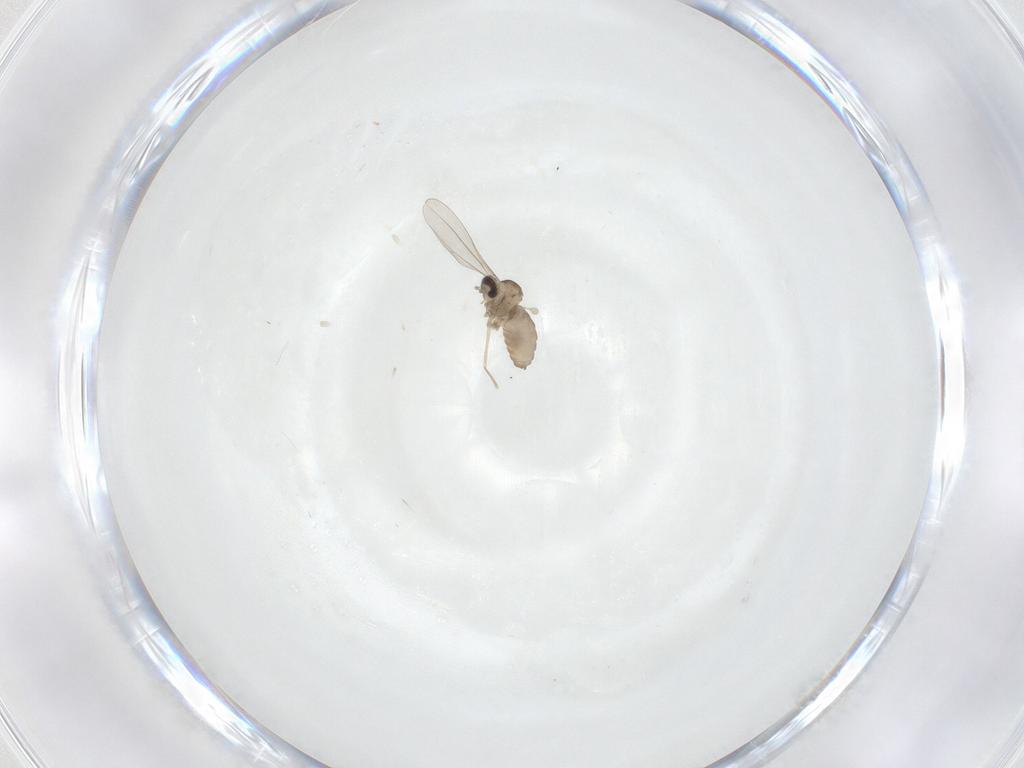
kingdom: Animalia
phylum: Arthropoda
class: Insecta
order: Diptera
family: Cecidomyiidae
